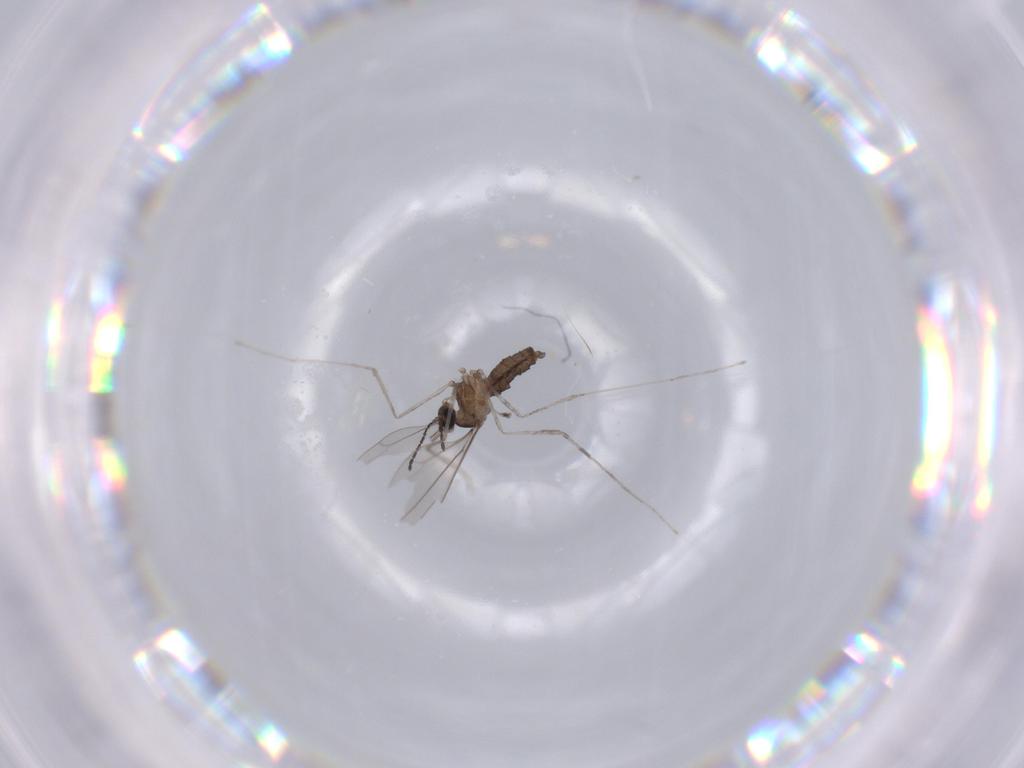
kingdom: Animalia
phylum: Arthropoda
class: Insecta
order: Diptera
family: Cecidomyiidae
